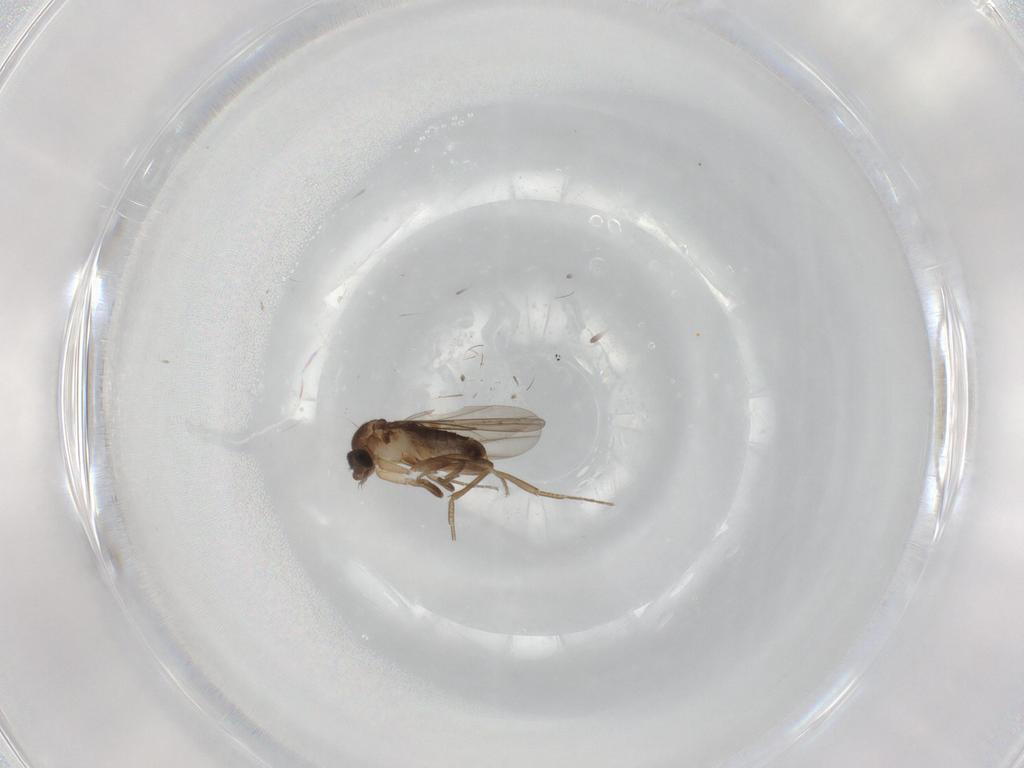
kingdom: Animalia
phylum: Arthropoda
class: Insecta
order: Diptera
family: Phoridae
